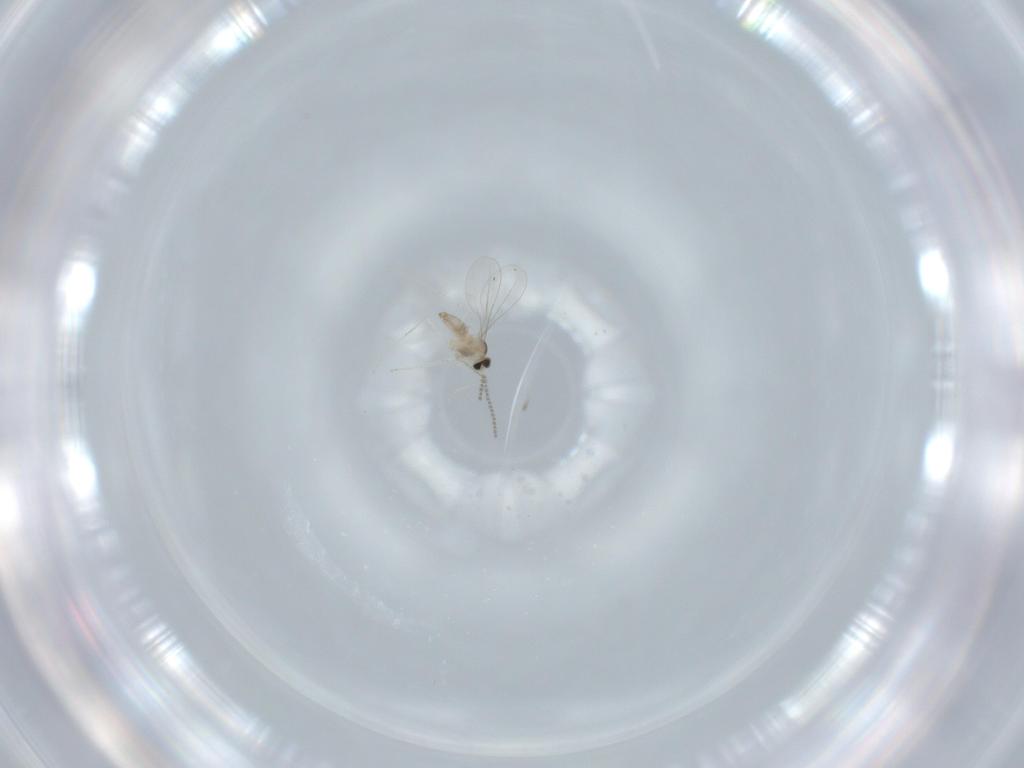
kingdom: Animalia
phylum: Arthropoda
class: Insecta
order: Diptera
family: Cecidomyiidae
